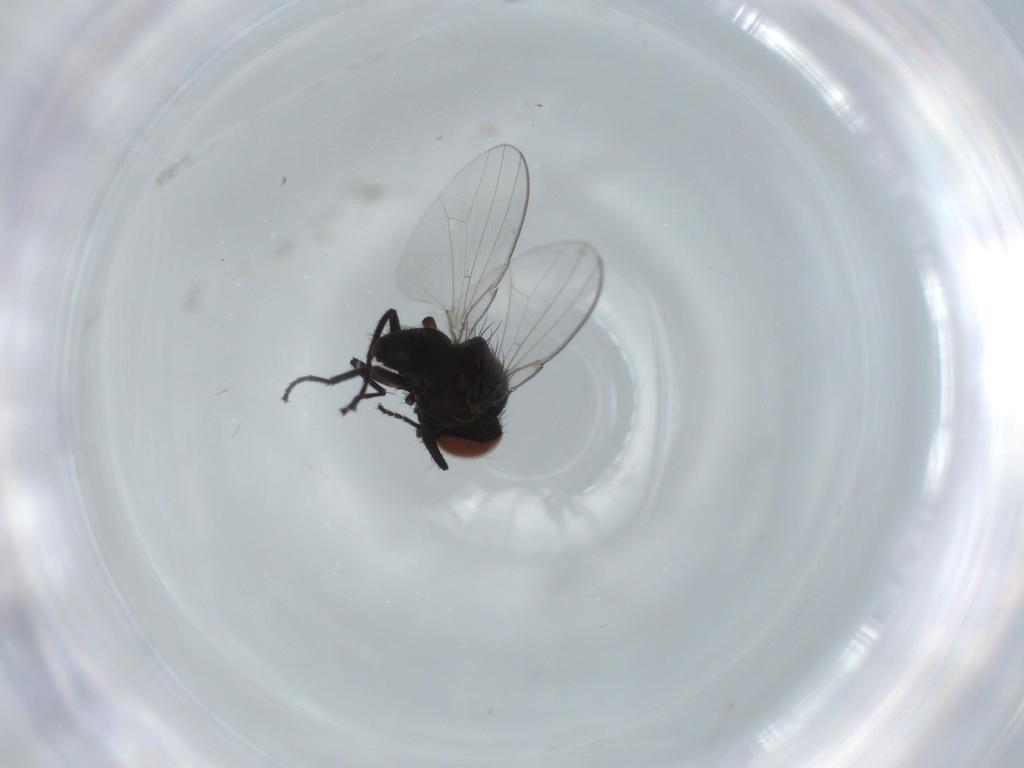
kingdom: Animalia
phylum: Arthropoda
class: Insecta
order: Diptera
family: Milichiidae
